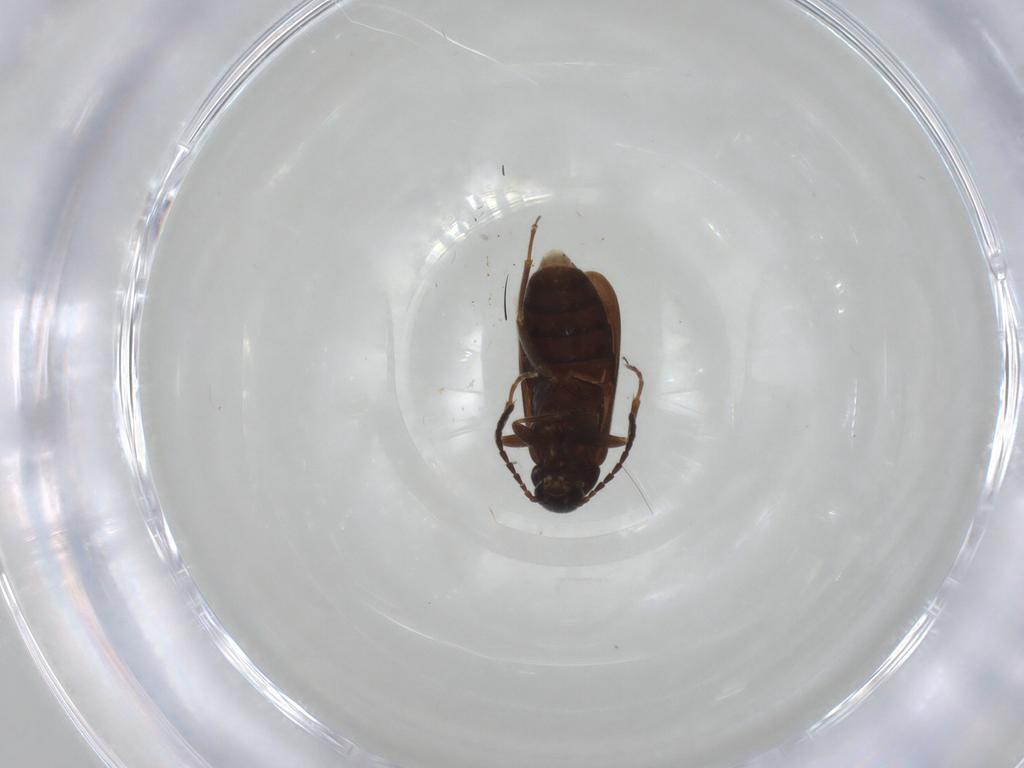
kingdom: Animalia
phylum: Arthropoda
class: Insecta
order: Coleoptera
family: Scraptiidae
